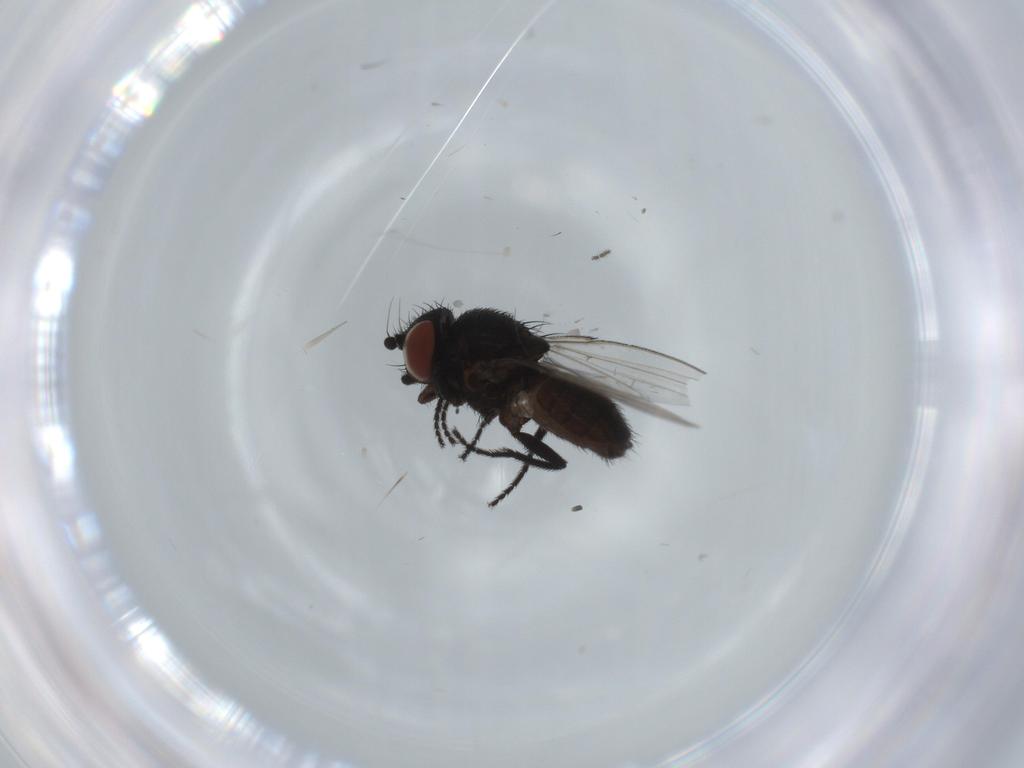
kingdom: Animalia
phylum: Arthropoda
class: Insecta
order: Diptera
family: Milichiidae
